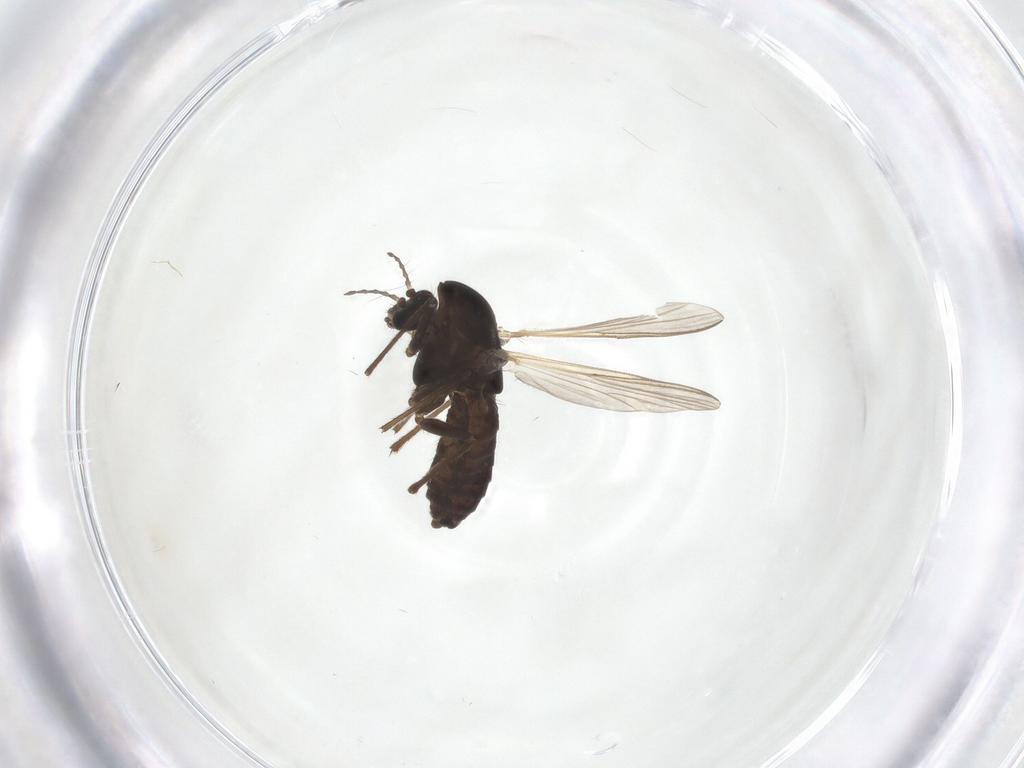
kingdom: Animalia
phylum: Arthropoda
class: Insecta
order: Diptera
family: Chironomidae
